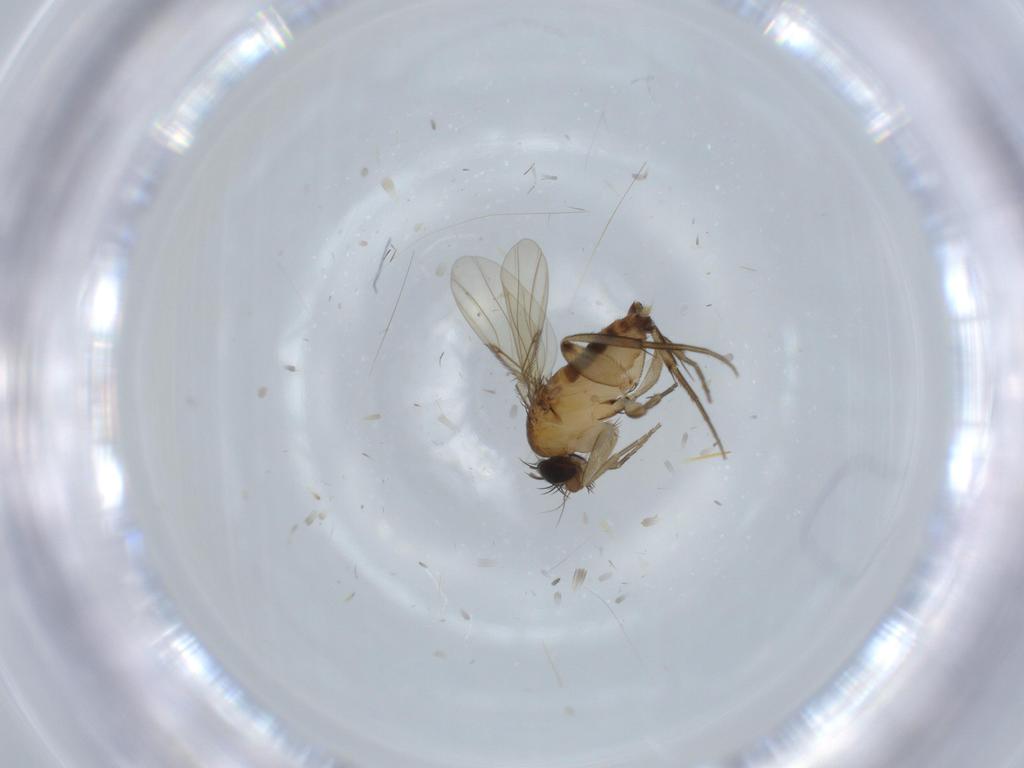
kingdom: Animalia
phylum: Arthropoda
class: Insecta
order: Diptera
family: Phoridae
